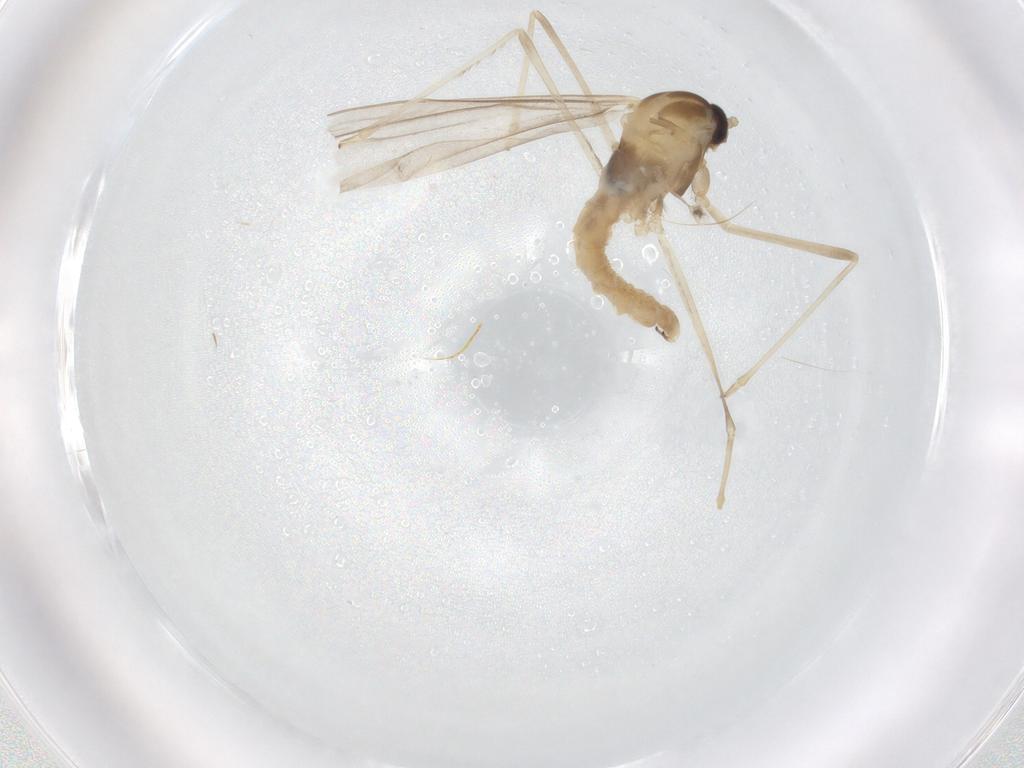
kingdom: Animalia
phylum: Arthropoda
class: Insecta
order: Diptera
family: Cecidomyiidae
